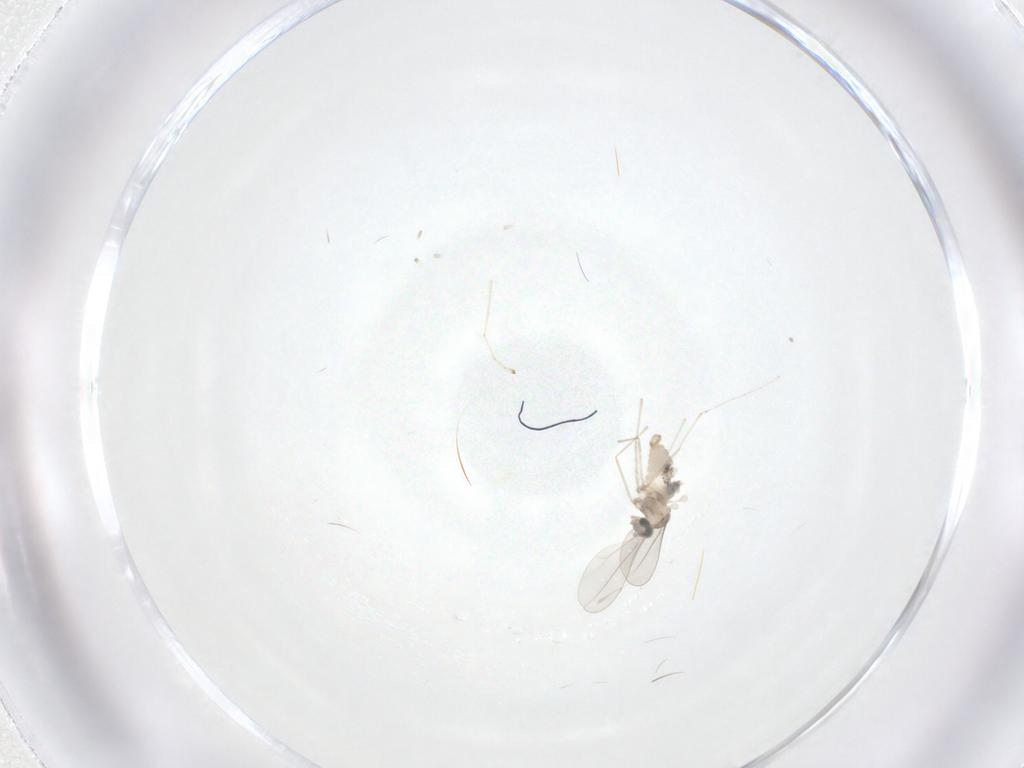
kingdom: Animalia
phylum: Arthropoda
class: Insecta
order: Diptera
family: Cecidomyiidae
